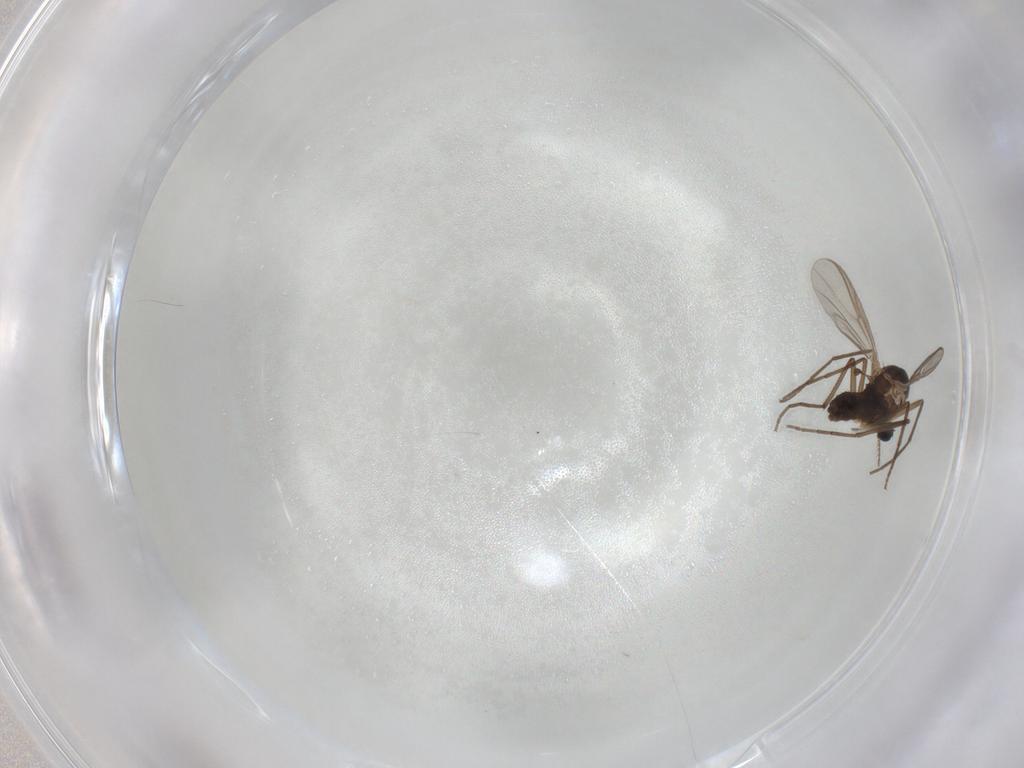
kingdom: Animalia
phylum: Arthropoda
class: Insecta
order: Diptera
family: Chironomidae
